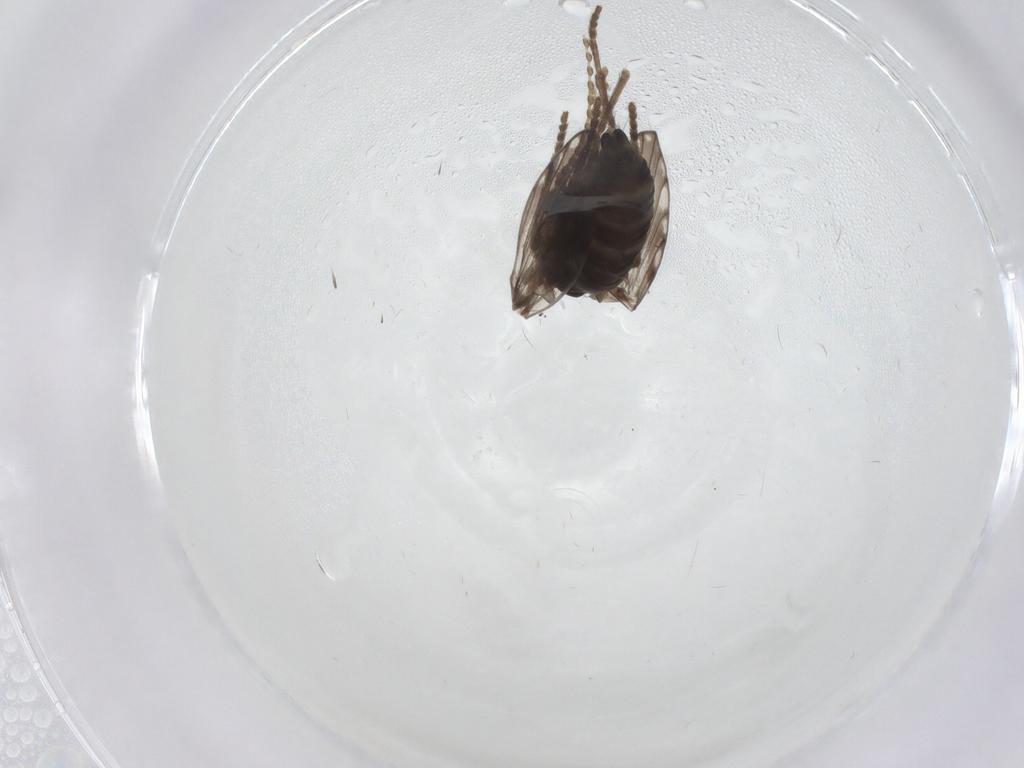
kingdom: Animalia
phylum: Arthropoda
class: Insecta
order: Diptera
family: Psychodidae
